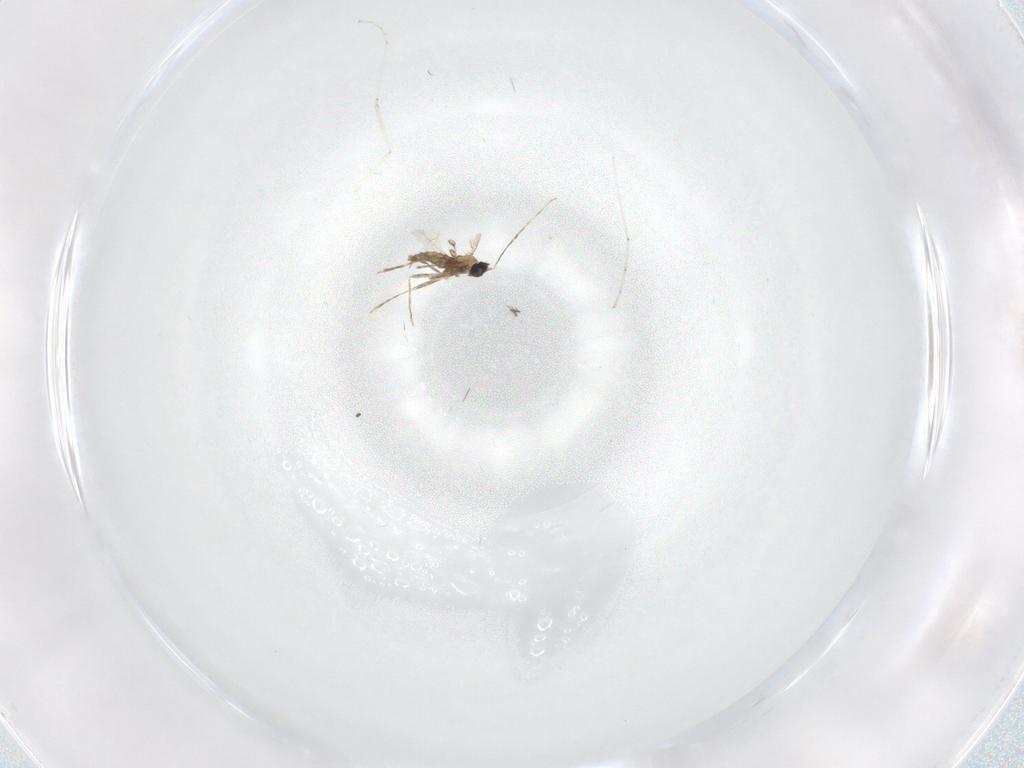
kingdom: Animalia
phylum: Arthropoda
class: Insecta
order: Diptera
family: Cecidomyiidae
